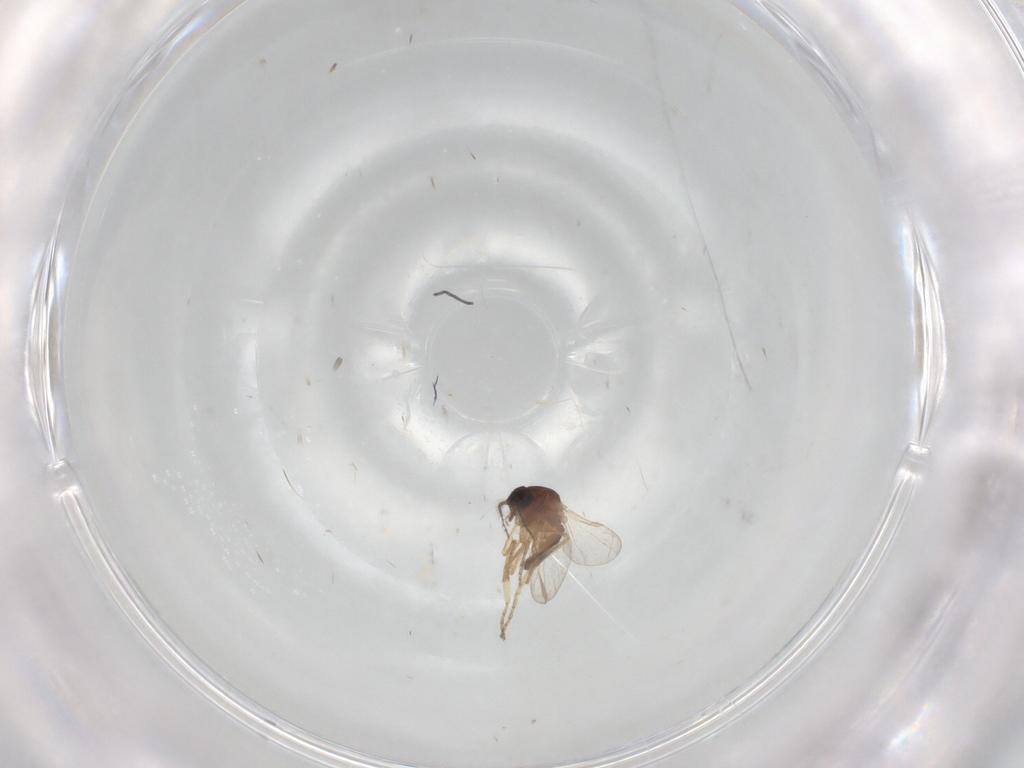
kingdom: Animalia
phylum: Arthropoda
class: Insecta
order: Diptera
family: Ceratopogonidae
